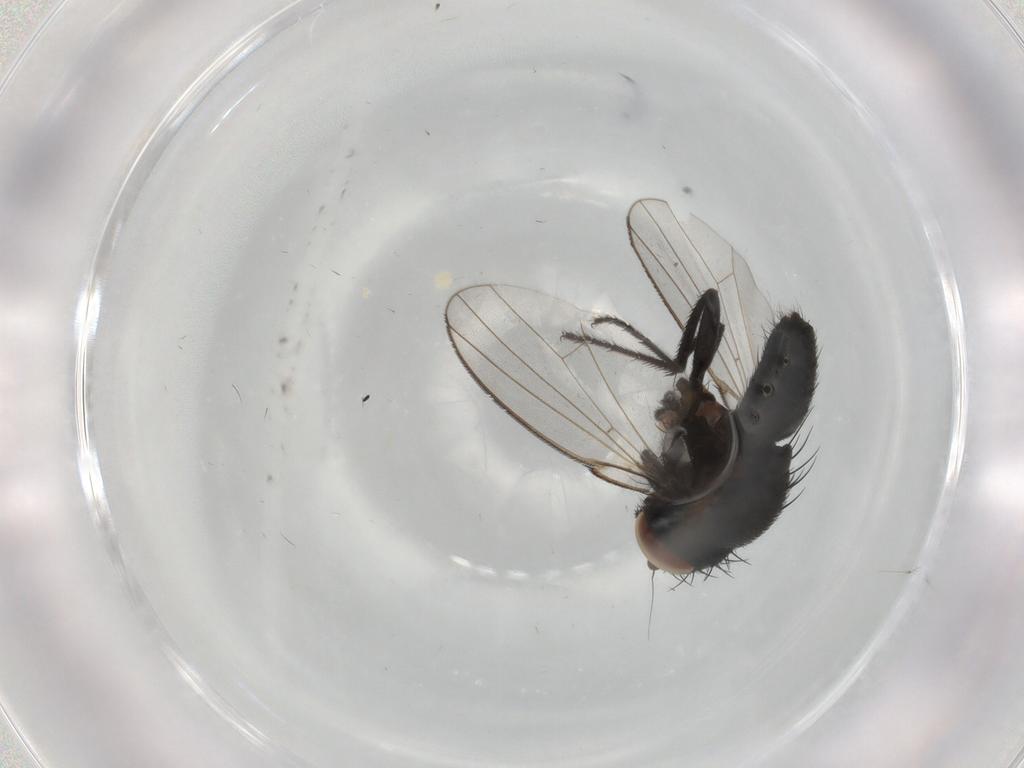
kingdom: Animalia
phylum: Arthropoda
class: Insecta
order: Diptera
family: Milichiidae
